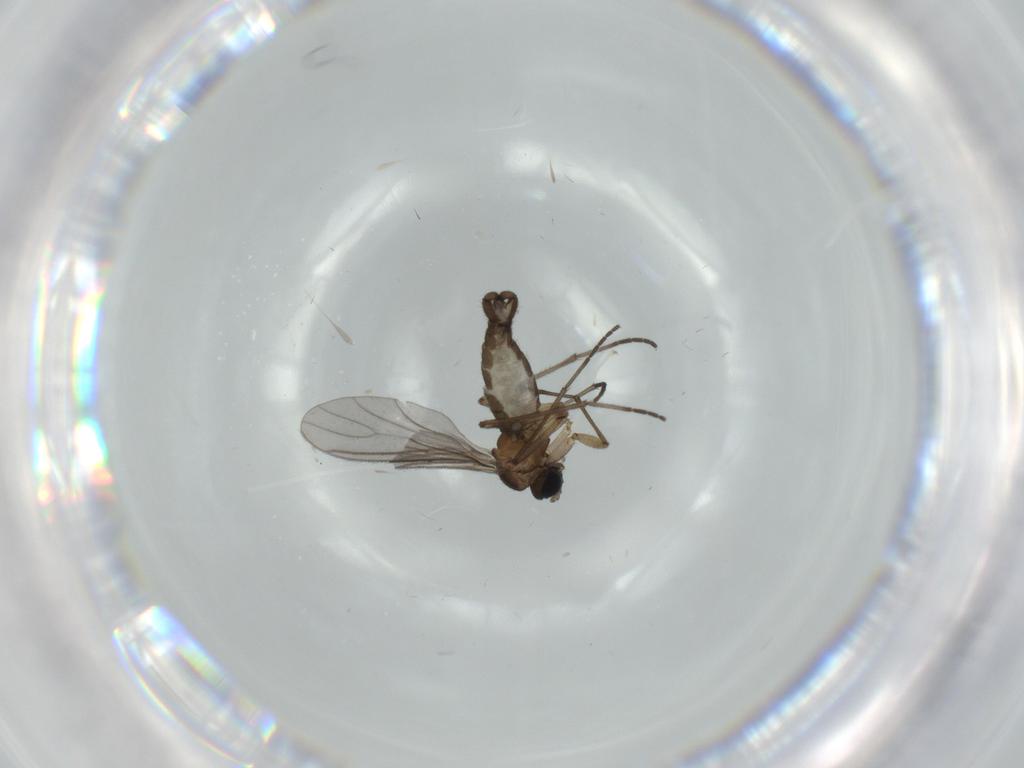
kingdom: Animalia
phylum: Arthropoda
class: Insecta
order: Diptera
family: Cecidomyiidae
